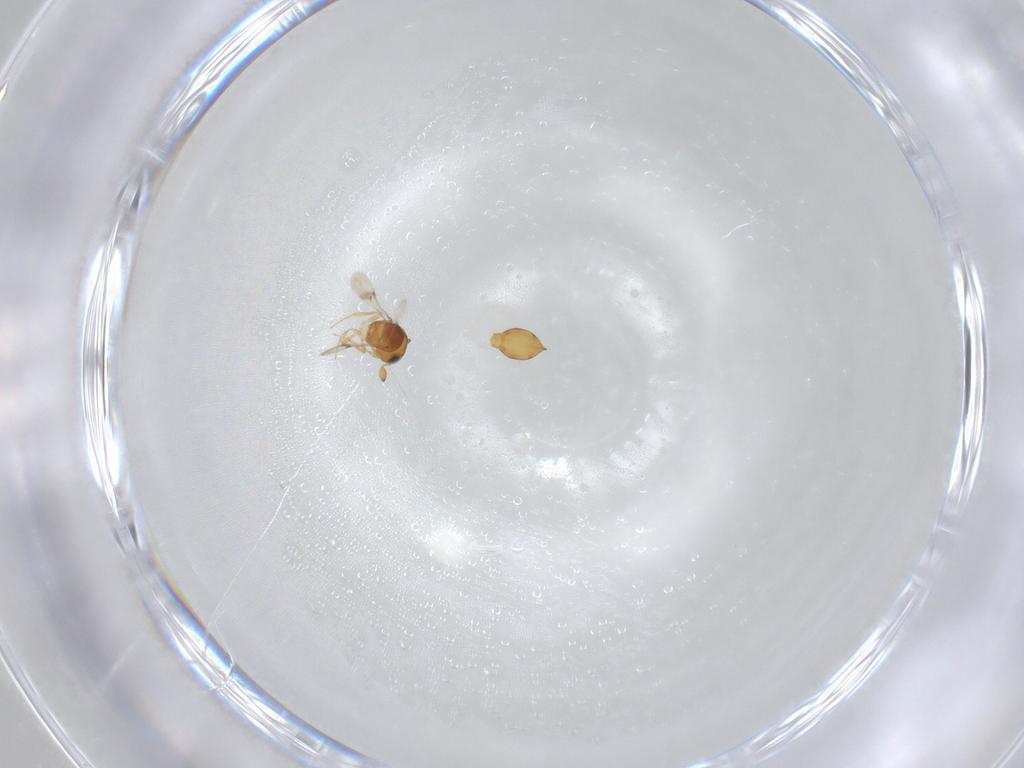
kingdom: Animalia
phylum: Arthropoda
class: Insecta
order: Hymenoptera
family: Scelionidae
